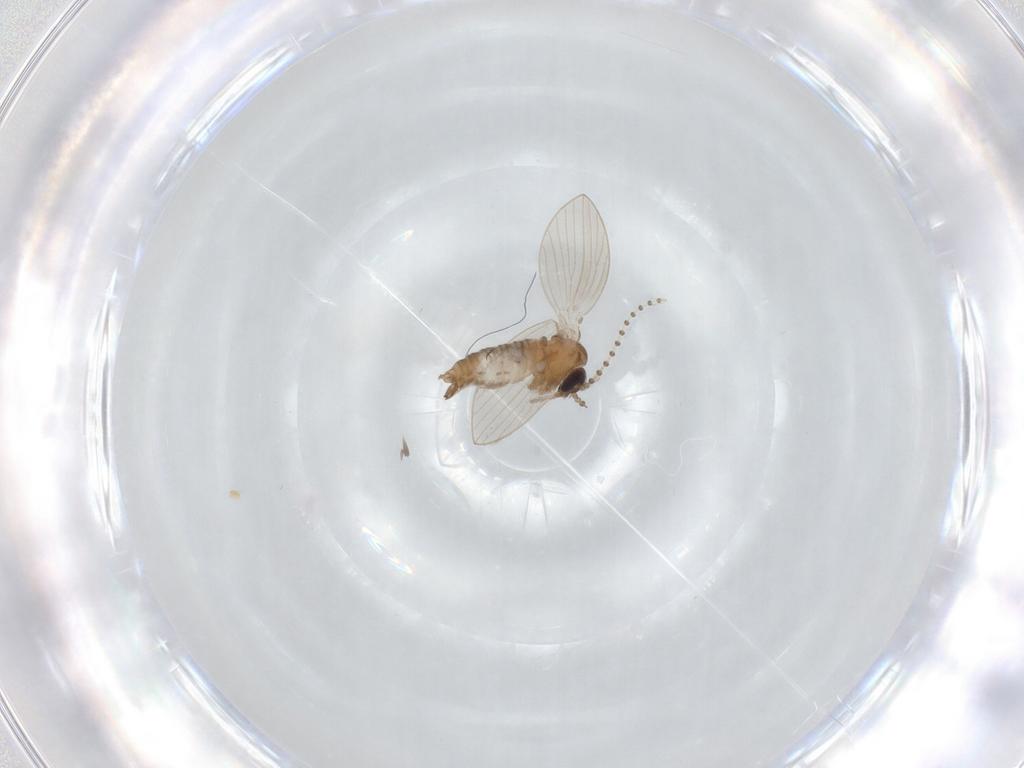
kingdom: Animalia
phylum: Arthropoda
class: Insecta
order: Diptera
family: Psychodidae
